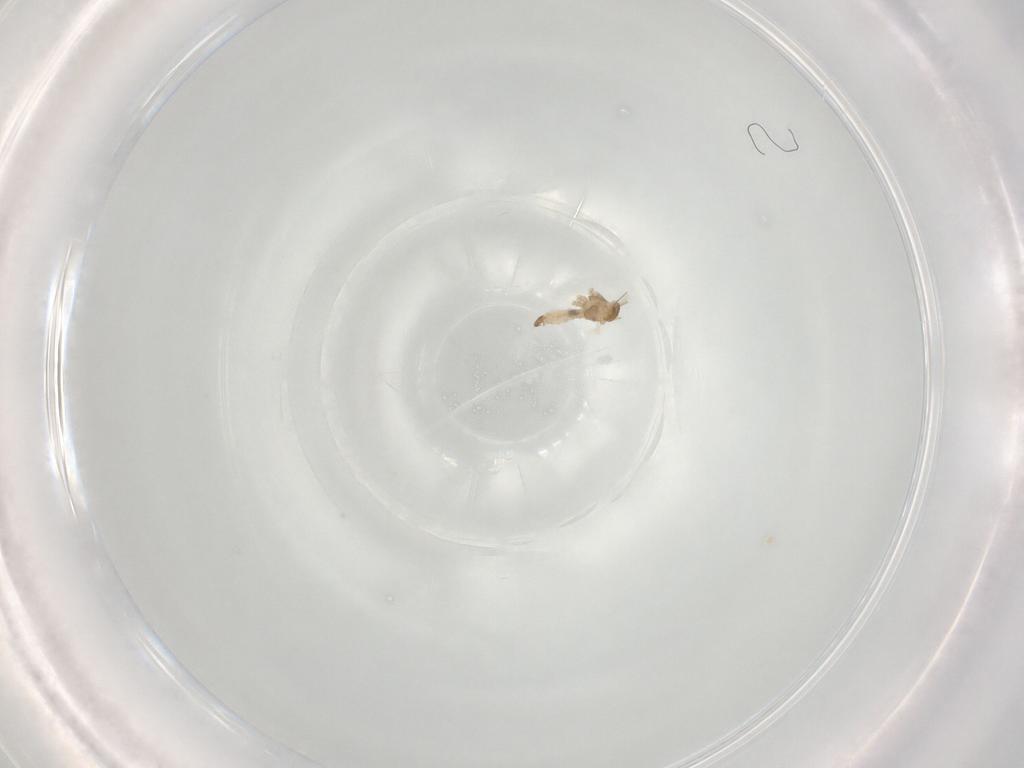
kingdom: Animalia
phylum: Arthropoda
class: Insecta
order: Diptera
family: Cecidomyiidae
